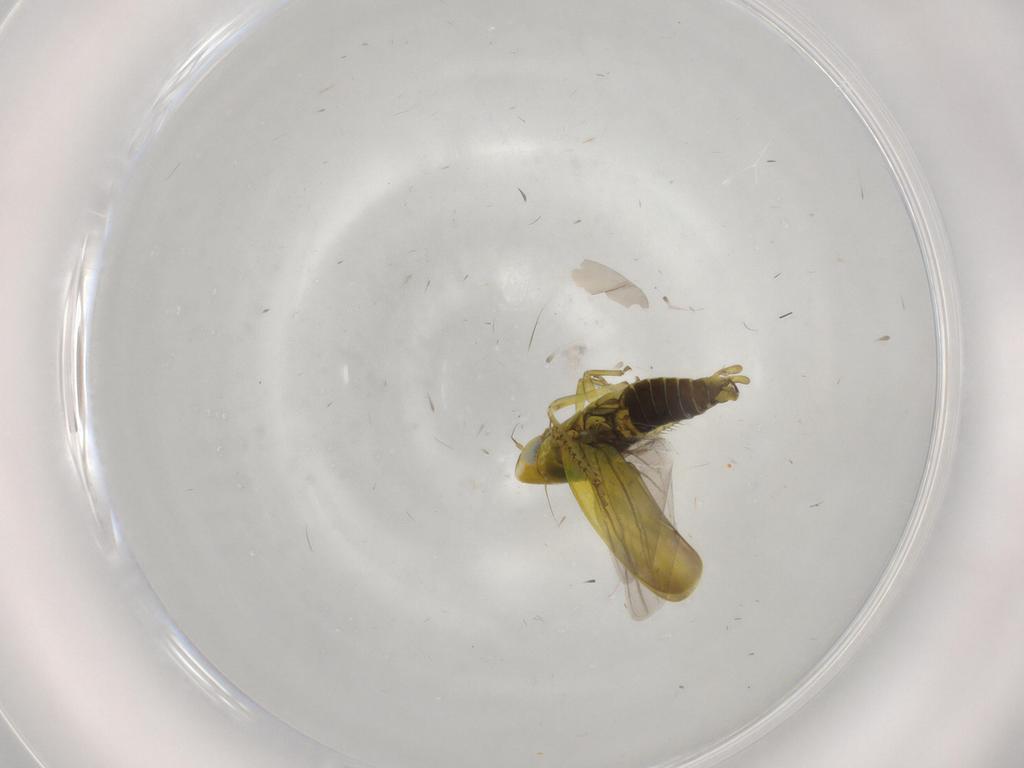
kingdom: Animalia
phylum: Arthropoda
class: Insecta
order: Hemiptera
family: Cicadellidae
